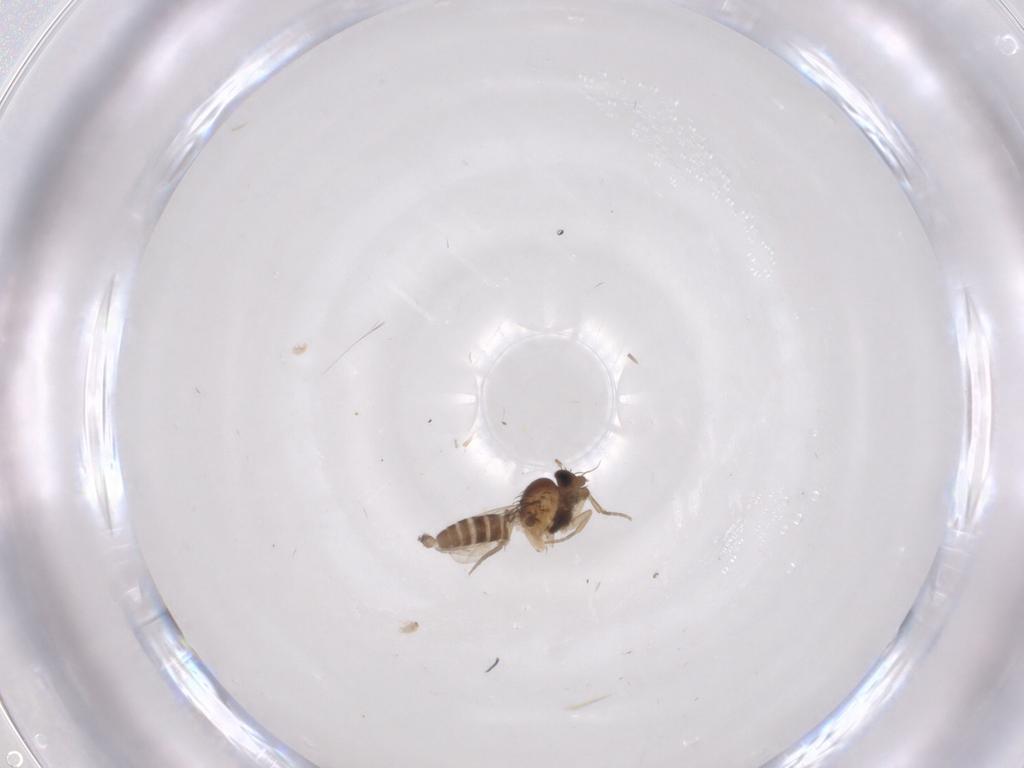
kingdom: Animalia
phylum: Arthropoda
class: Insecta
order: Diptera
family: Phoridae
